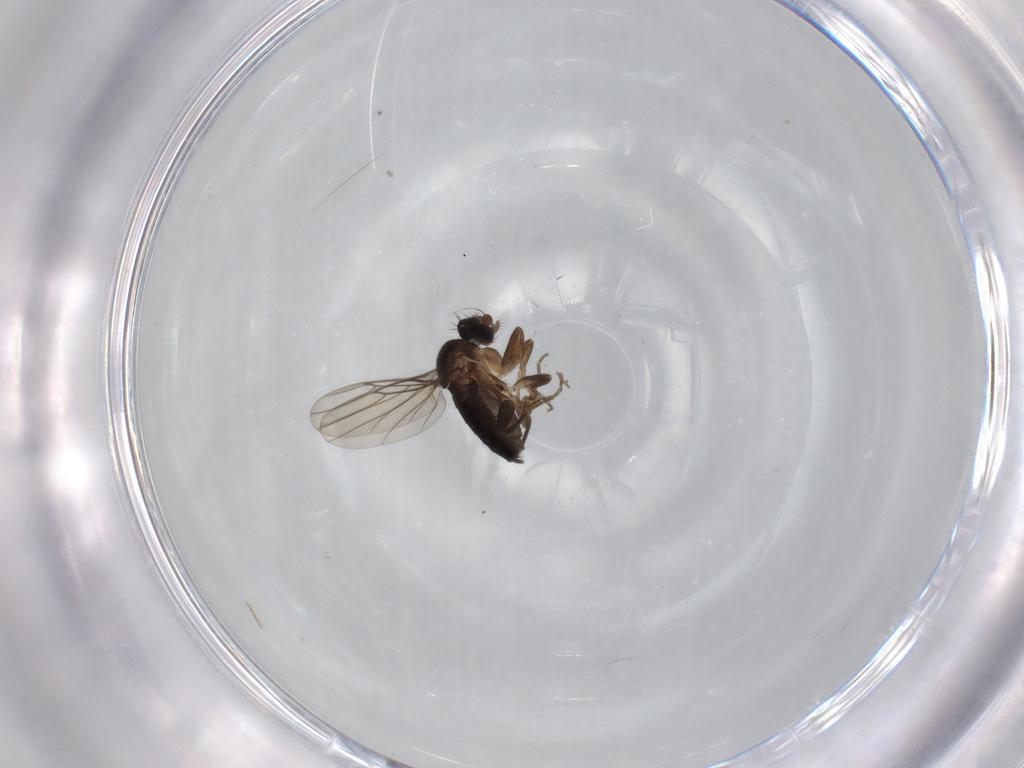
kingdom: Animalia
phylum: Arthropoda
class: Insecta
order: Diptera
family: Phoridae
